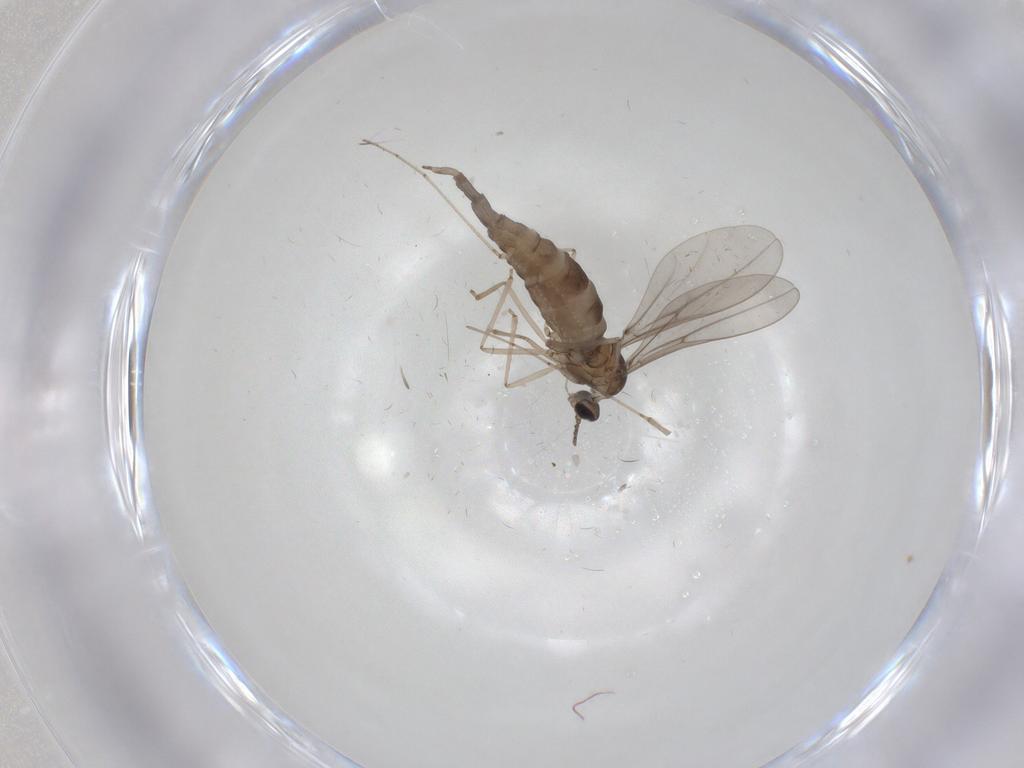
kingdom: Animalia
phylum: Arthropoda
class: Insecta
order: Diptera
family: Cecidomyiidae
